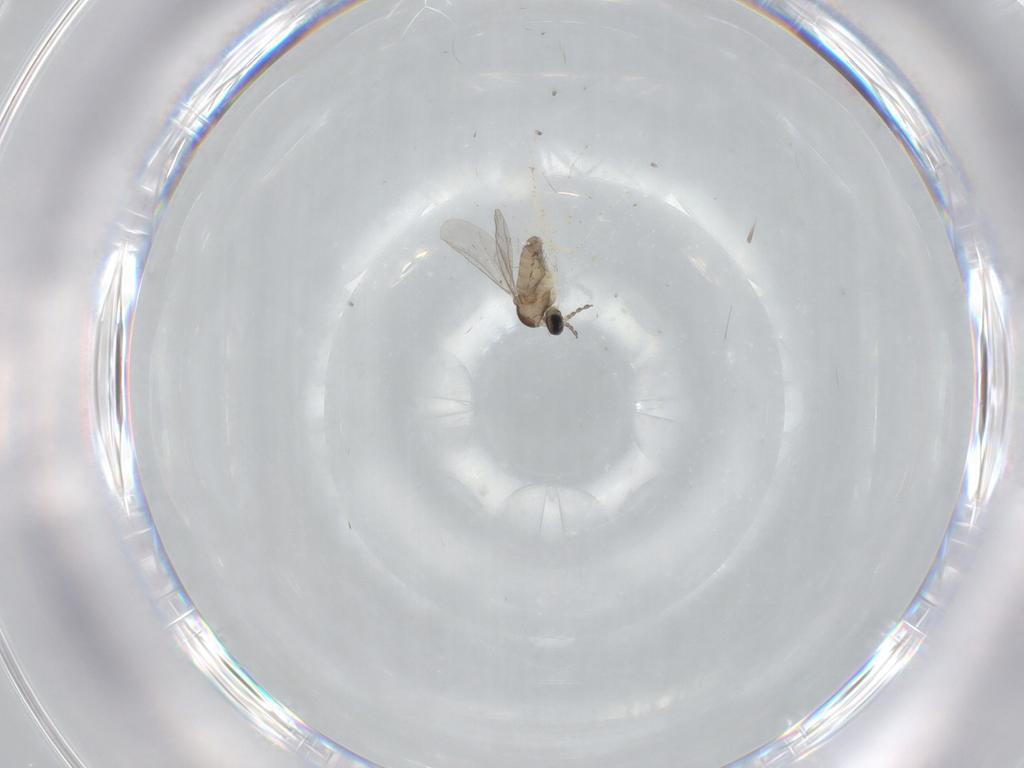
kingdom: Animalia
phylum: Arthropoda
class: Insecta
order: Diptera
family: Cecidomyiidae
